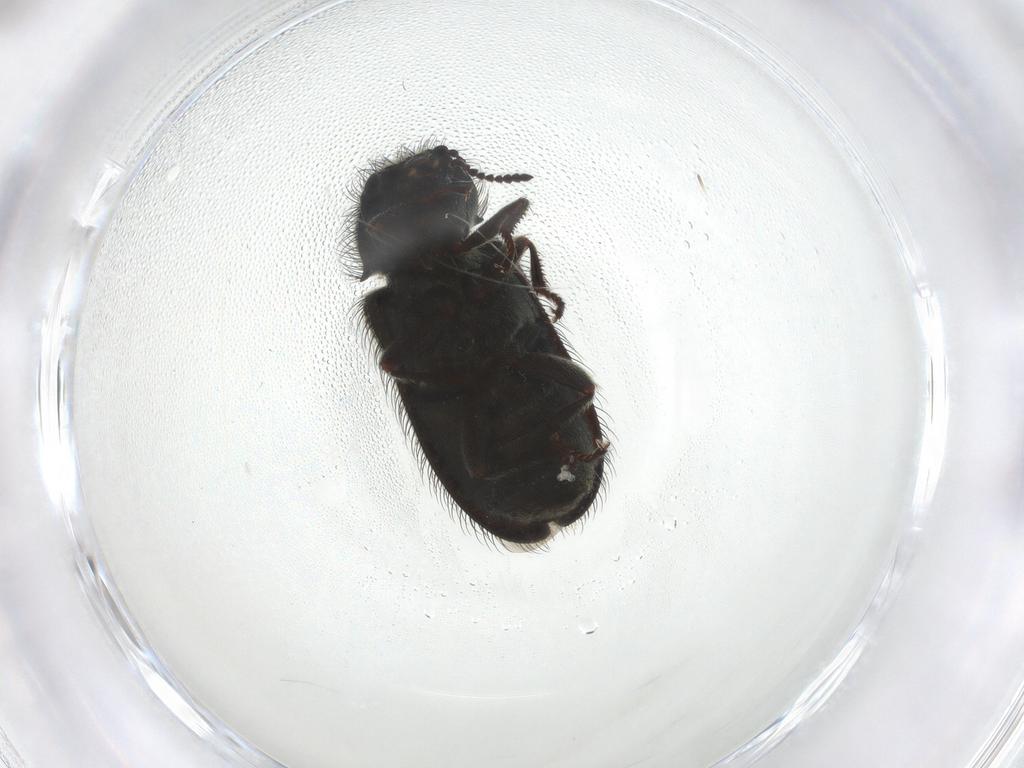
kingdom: Animalia
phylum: Arthropoda
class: Insecta
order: Coleoptera
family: Melyridae
